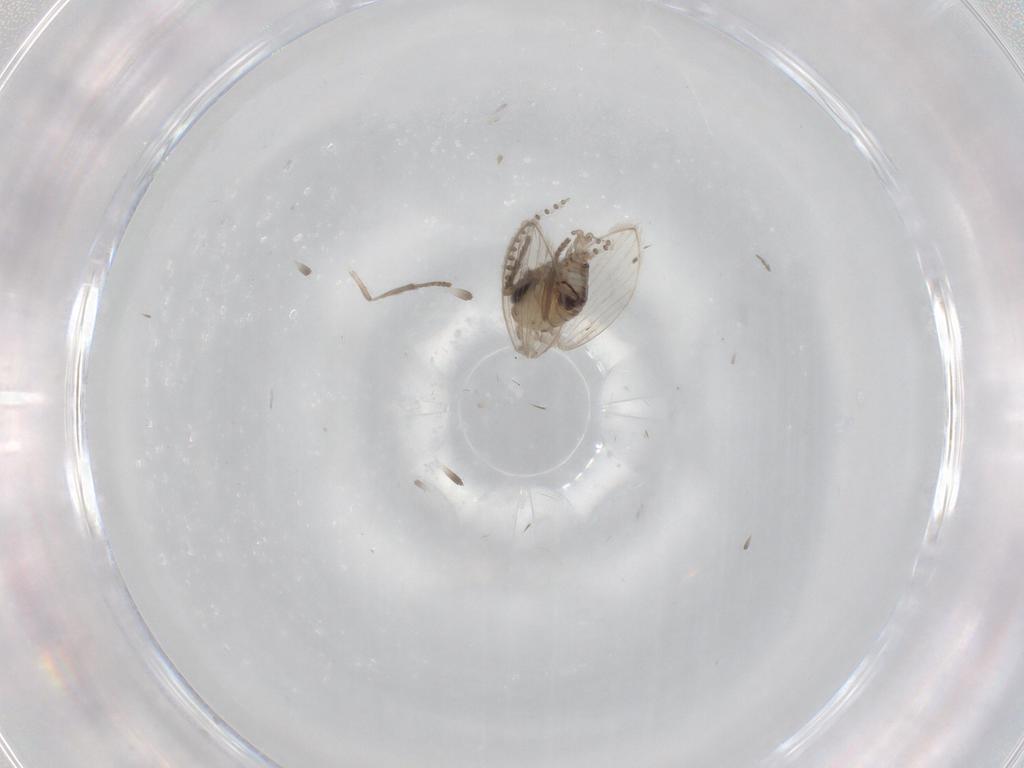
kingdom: Animalia
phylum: Arthropoda
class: Insecta
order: Diptera
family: Psychodidae
